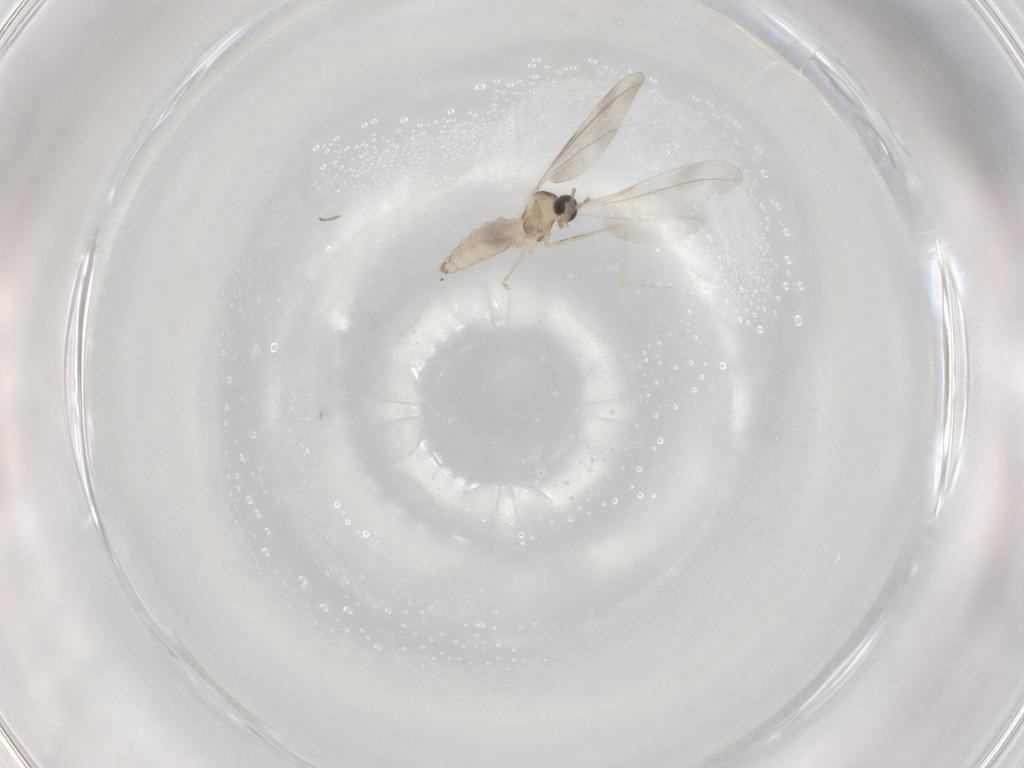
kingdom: Animalia
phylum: Arthropoda
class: Insecta
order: Diptera
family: Cecidomyiidae
